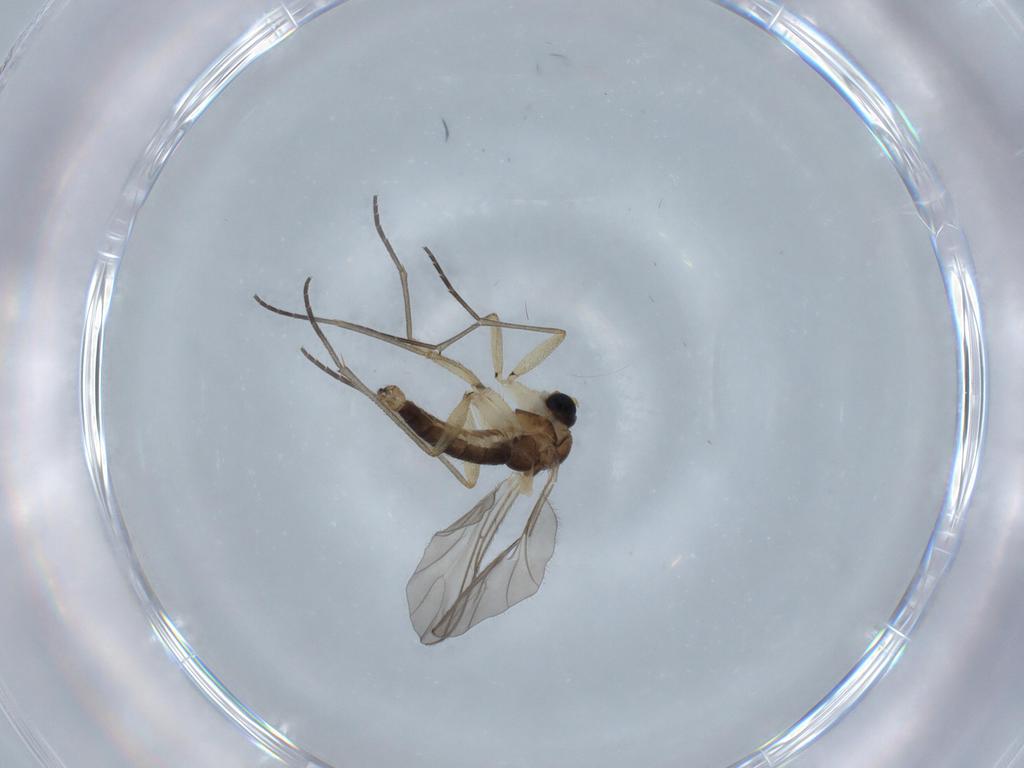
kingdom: Animalia
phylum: Arthropoda
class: Insecta
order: Diptera
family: Sciaridae
